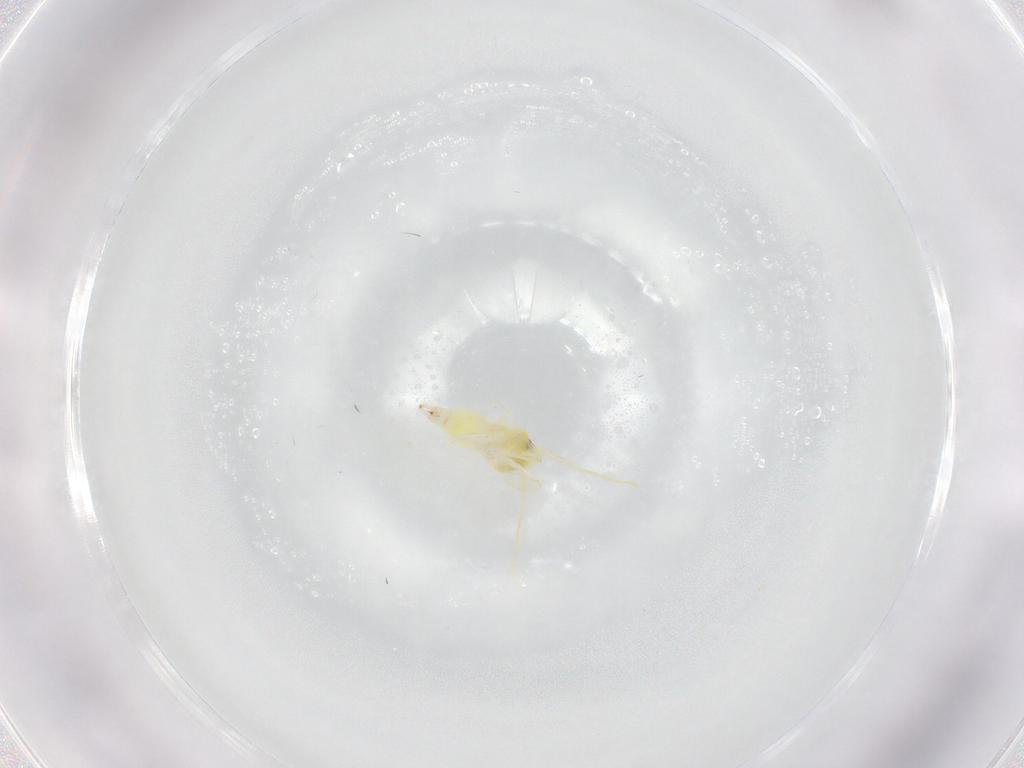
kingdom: Animalia
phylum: Arthropoda
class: Insecta
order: Hemiptera
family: Aleyrodidae
